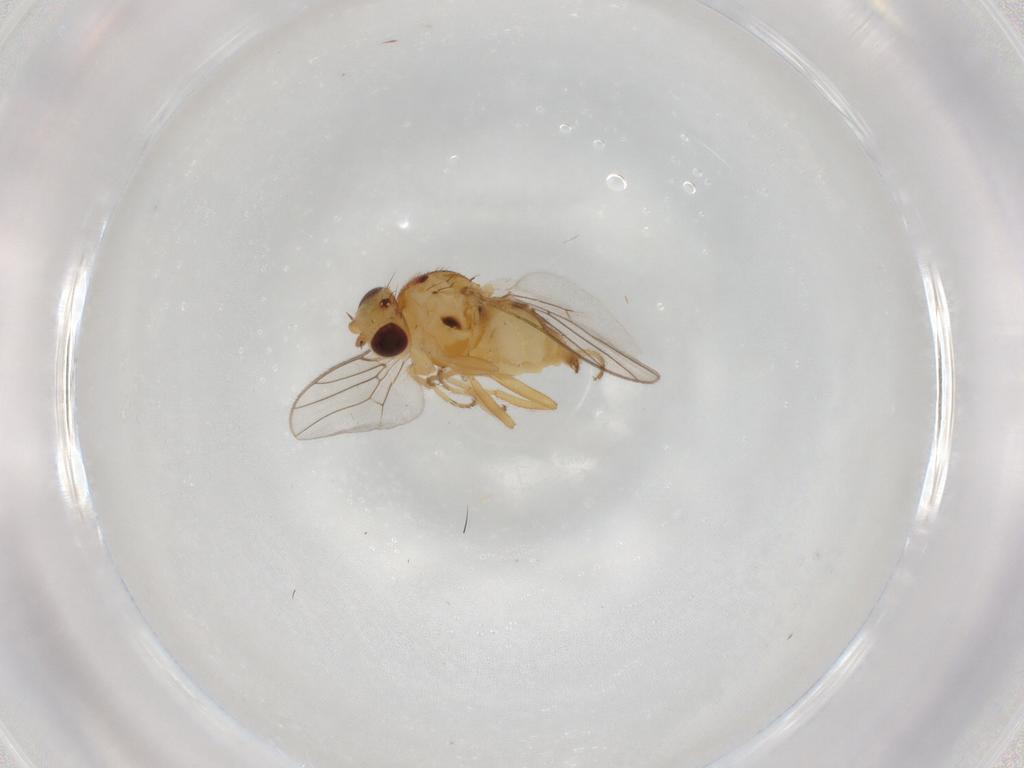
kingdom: Animalia
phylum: Arthropoda
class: Insecta
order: Diptera
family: Chloropidae
